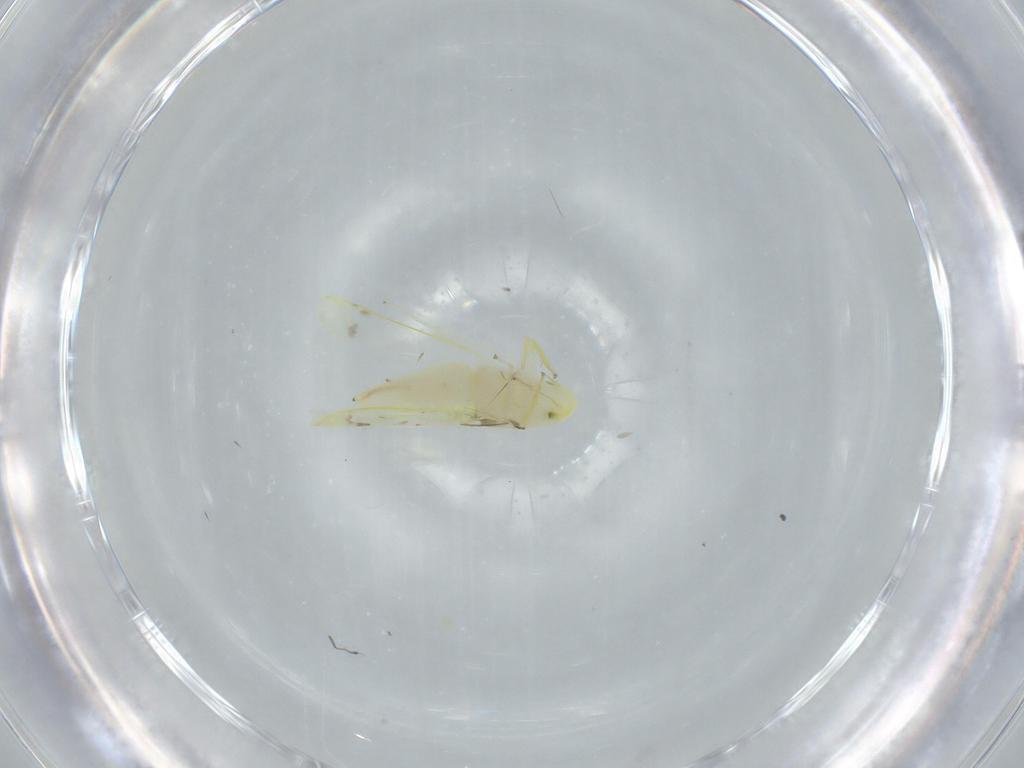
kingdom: Animalia
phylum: Arthropoda
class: Insecta
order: Hemiptera
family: Cicadellidae
